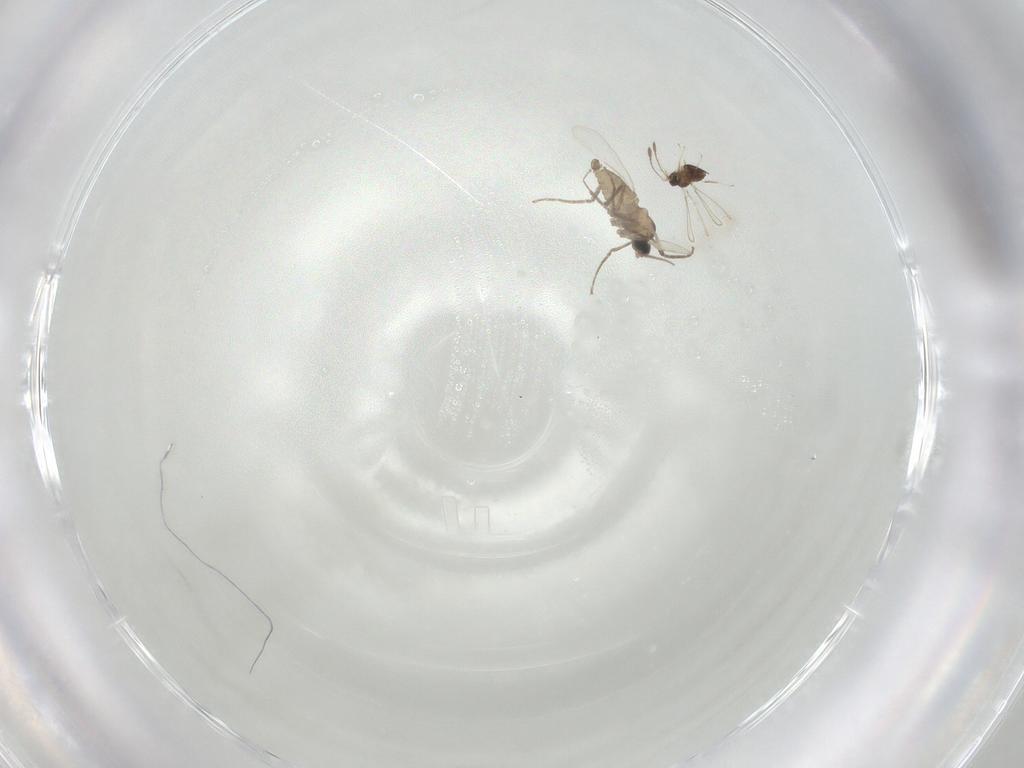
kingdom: Animalia
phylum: Arthropoda
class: Insecta
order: Diptera
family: Cecidomyiidae
